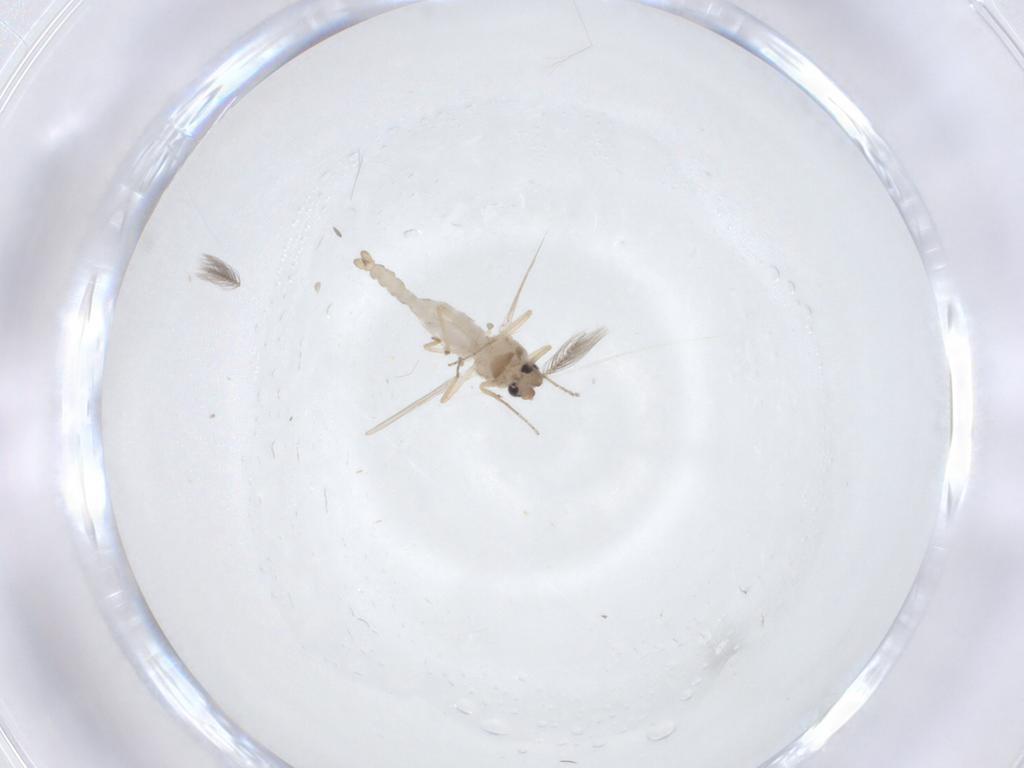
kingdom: Animalia
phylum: Arthropoda
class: Insecta
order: Diptera
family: Ceratopogonidae
